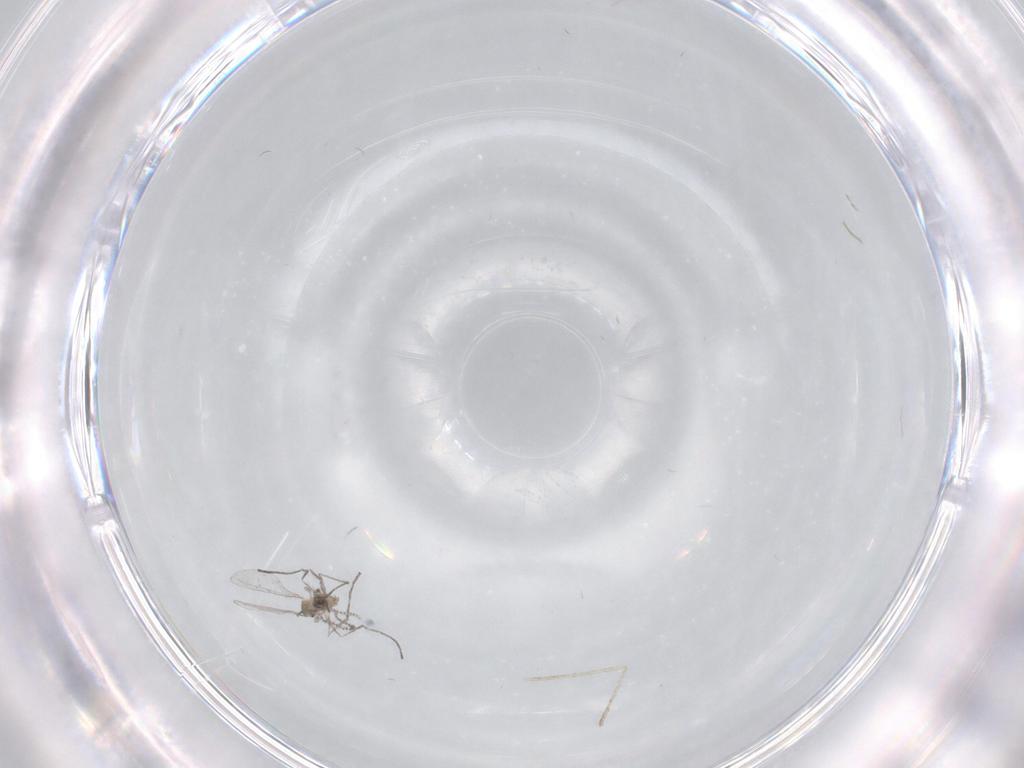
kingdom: Animalia
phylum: Arthropoda
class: Insecta
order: Diptera
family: Cecidomyiidae
